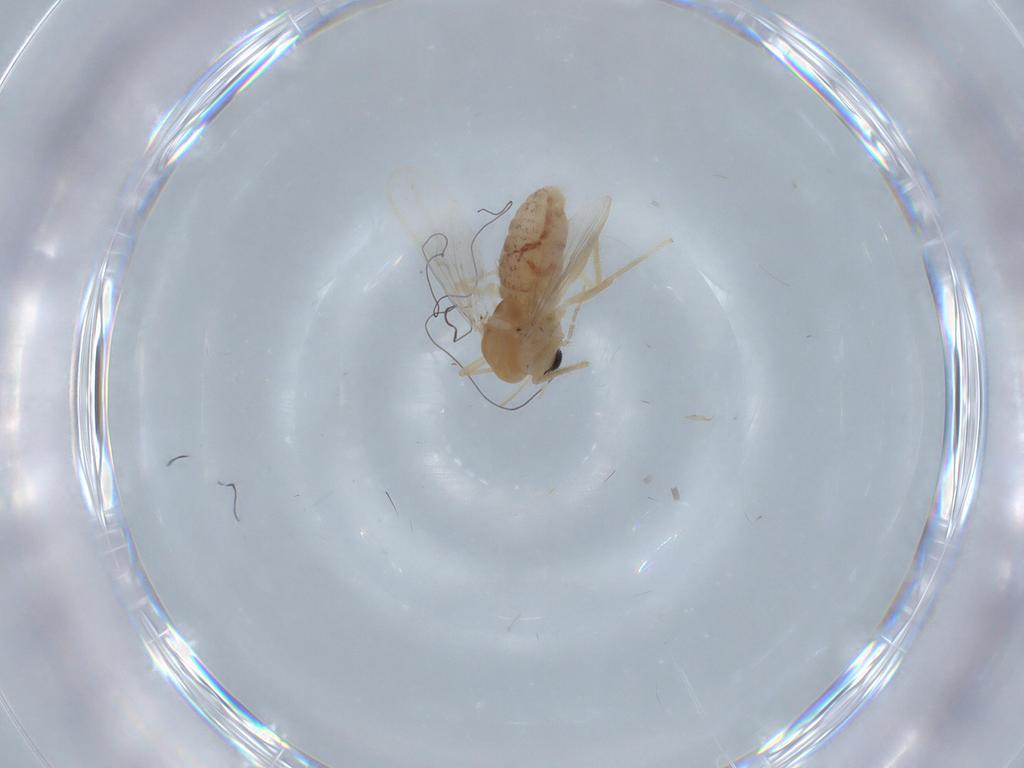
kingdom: Animalia
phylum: Arthropoda
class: Insecta
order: Diptera
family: Chironomidae
